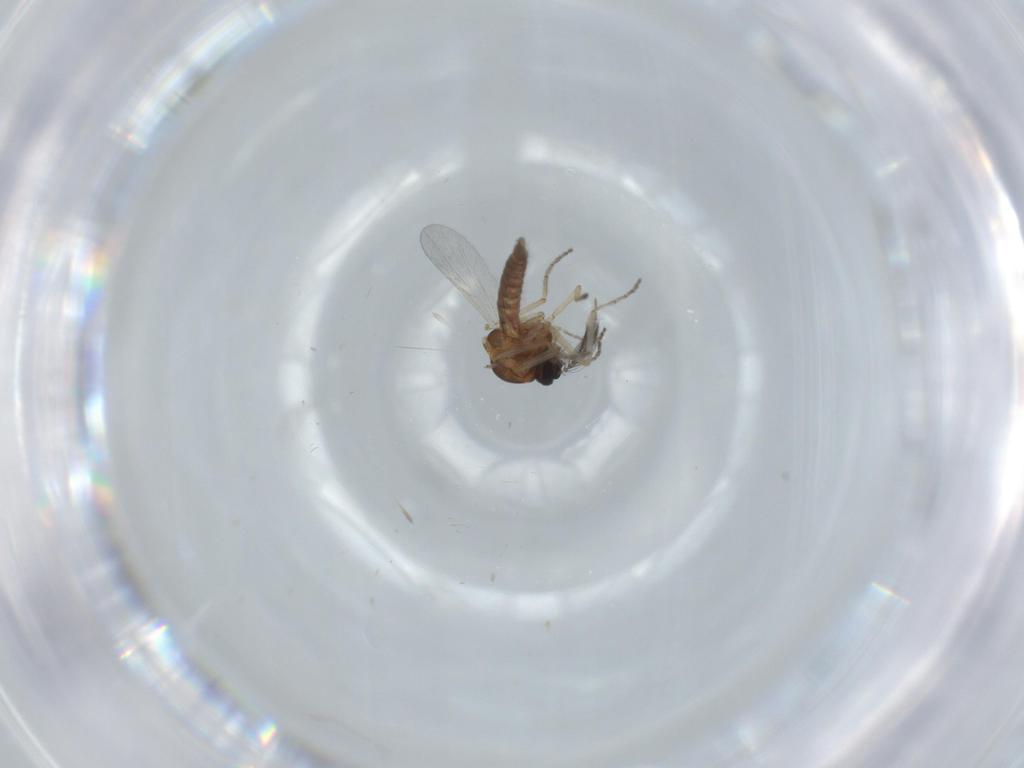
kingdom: Animalia
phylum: Arthropoda
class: Insecta
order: Diptera
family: Ceratopogonidae
